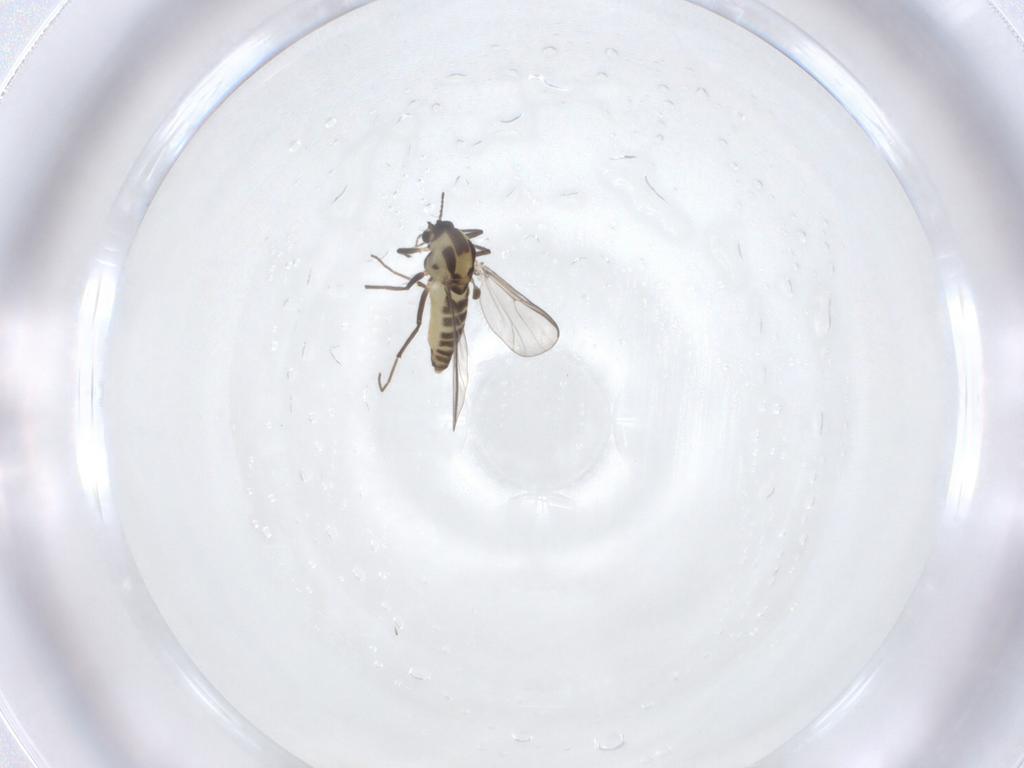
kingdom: Animalia
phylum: Arthropoda
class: Insecta
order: Diptera
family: Chironomidae
